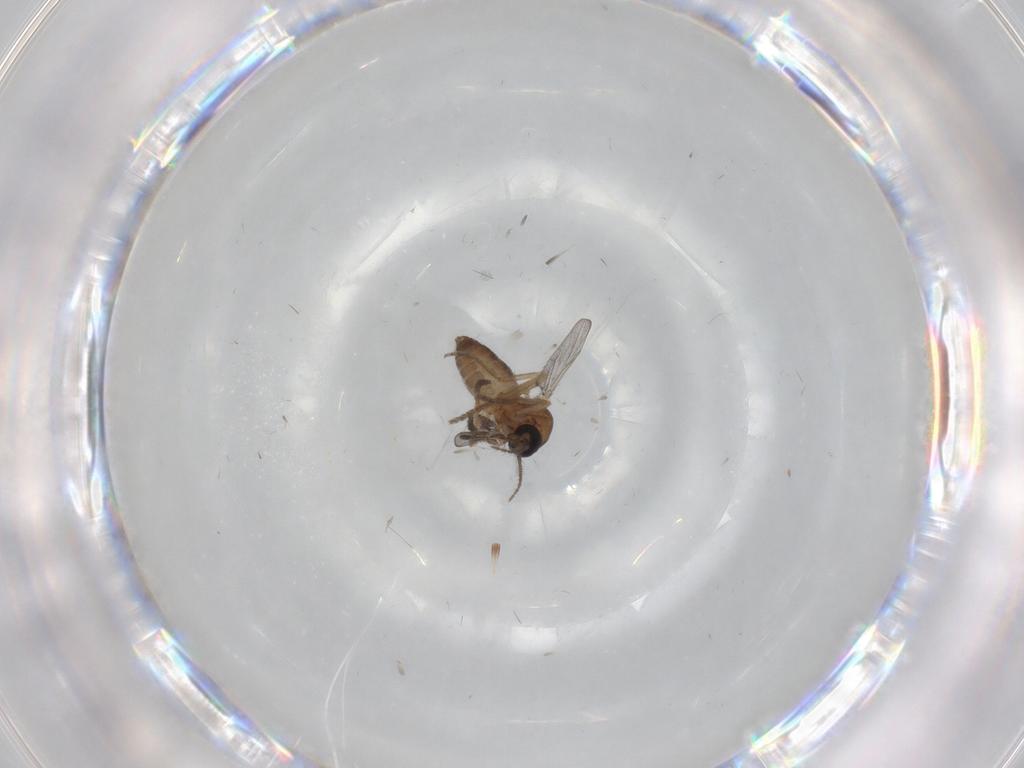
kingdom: Animalia
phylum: Arthropoda
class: Insecta
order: Diptera
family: Ceratopogonidae
